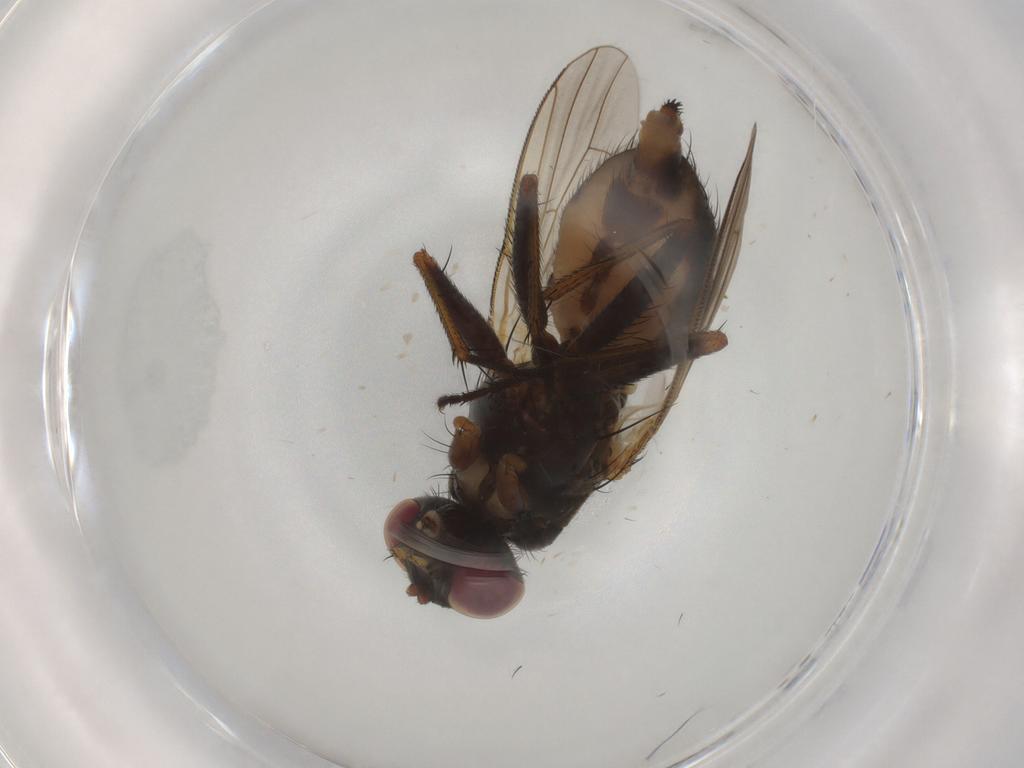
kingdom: Animalia
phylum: Arthropoda
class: Insecta
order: Diptera
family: Muscidae
